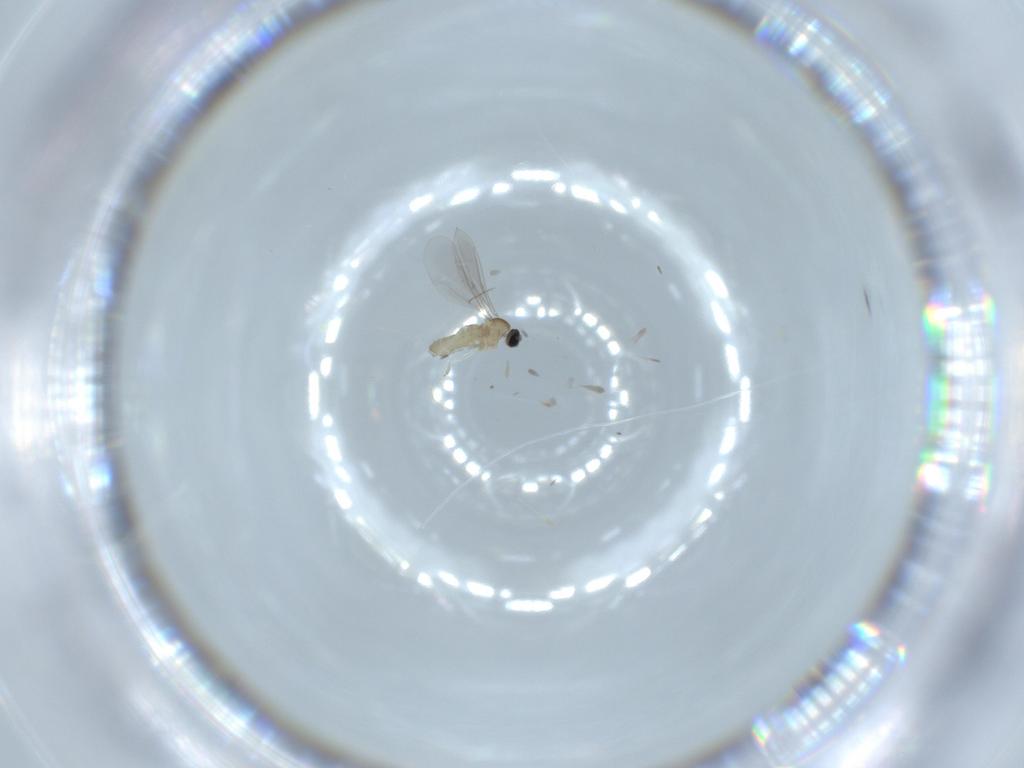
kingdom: Animalia
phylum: Arthropoda
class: Insecta
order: Diptera
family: Cecidomyiidae
